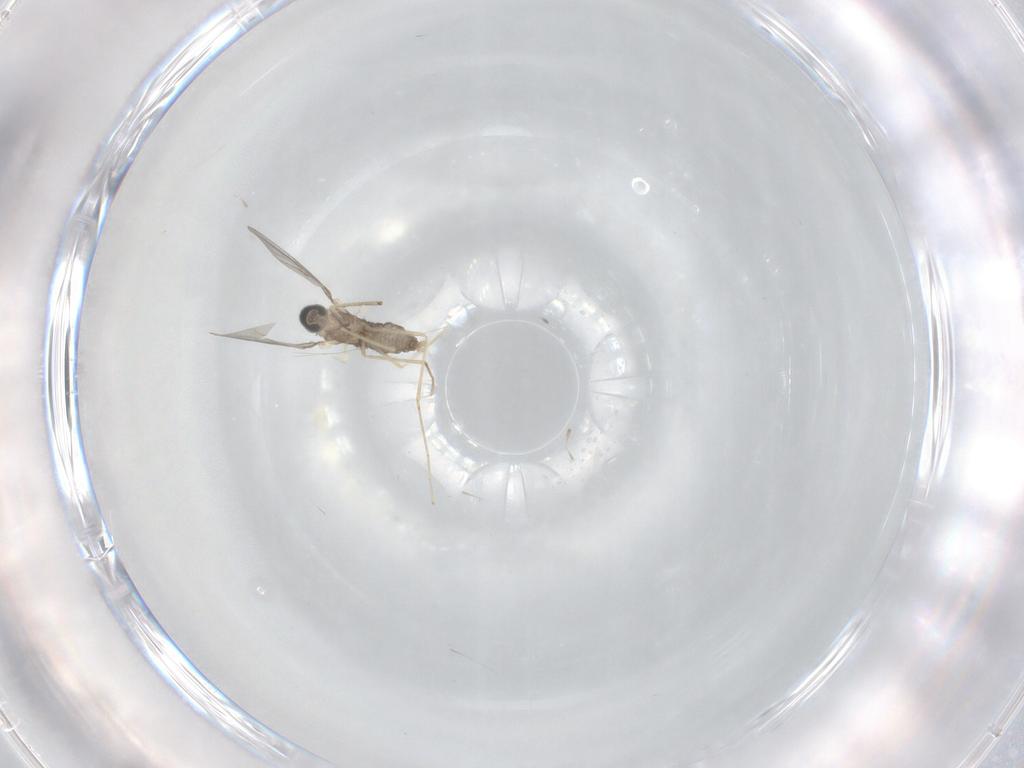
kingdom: Animalia
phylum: Arthropoda
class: Insecta
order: Diptera
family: Cecidomyiidae
